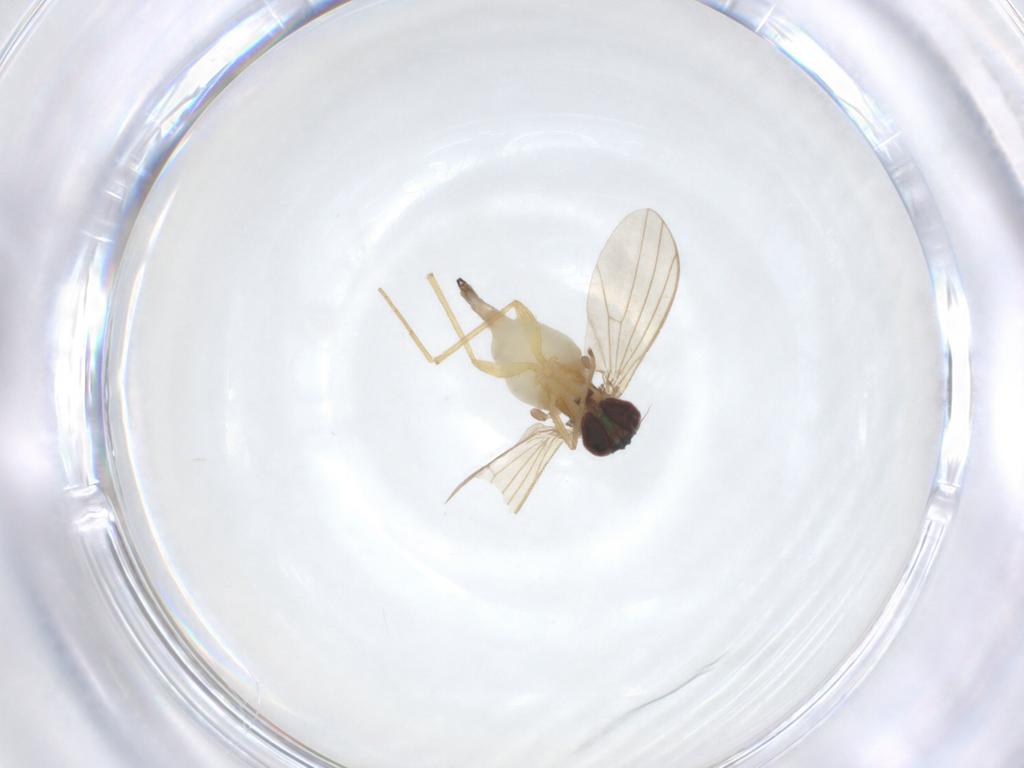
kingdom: Animalia
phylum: Arthropoda
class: Insecta
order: Diptera
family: Dolichopodidae
